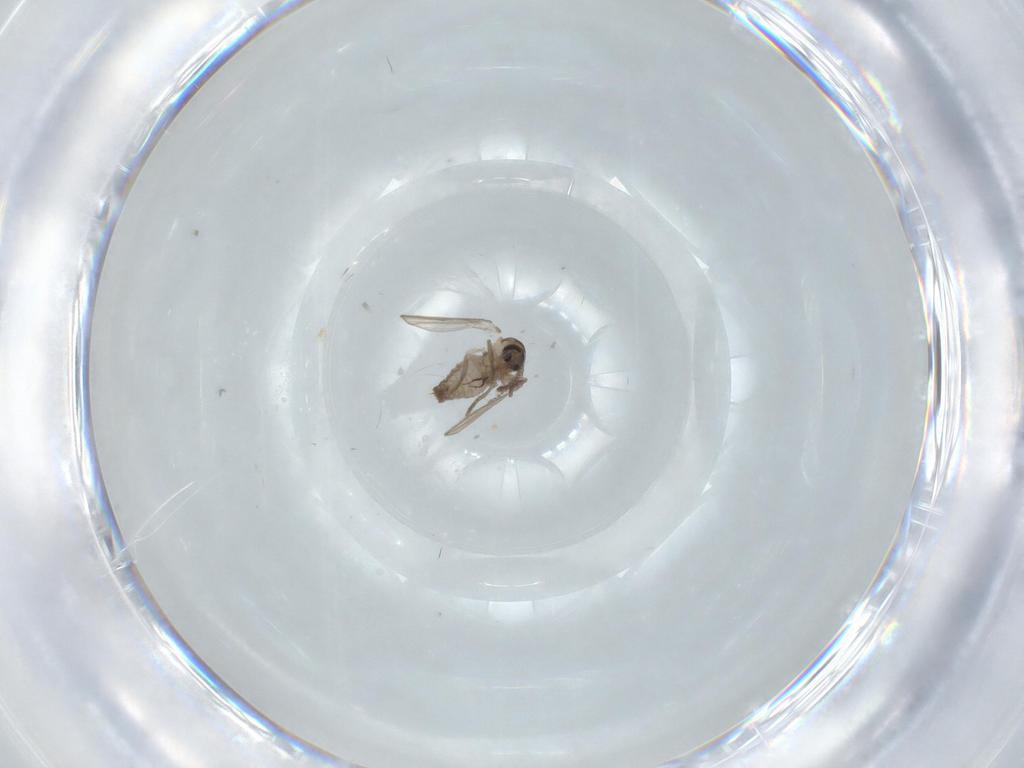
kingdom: Animalia
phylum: Arthropoda
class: Insecta
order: Diptera
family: Psychodidae
